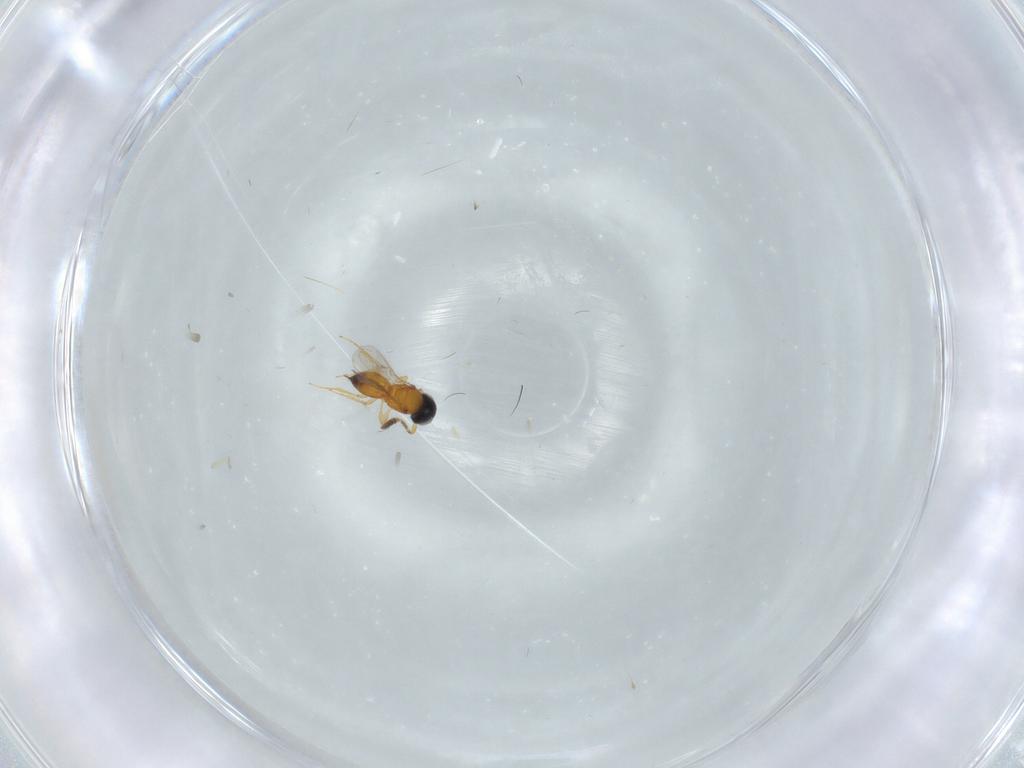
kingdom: Animalia
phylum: Arthropoda
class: Insecta
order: Hymenoptera
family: Scelionidae
